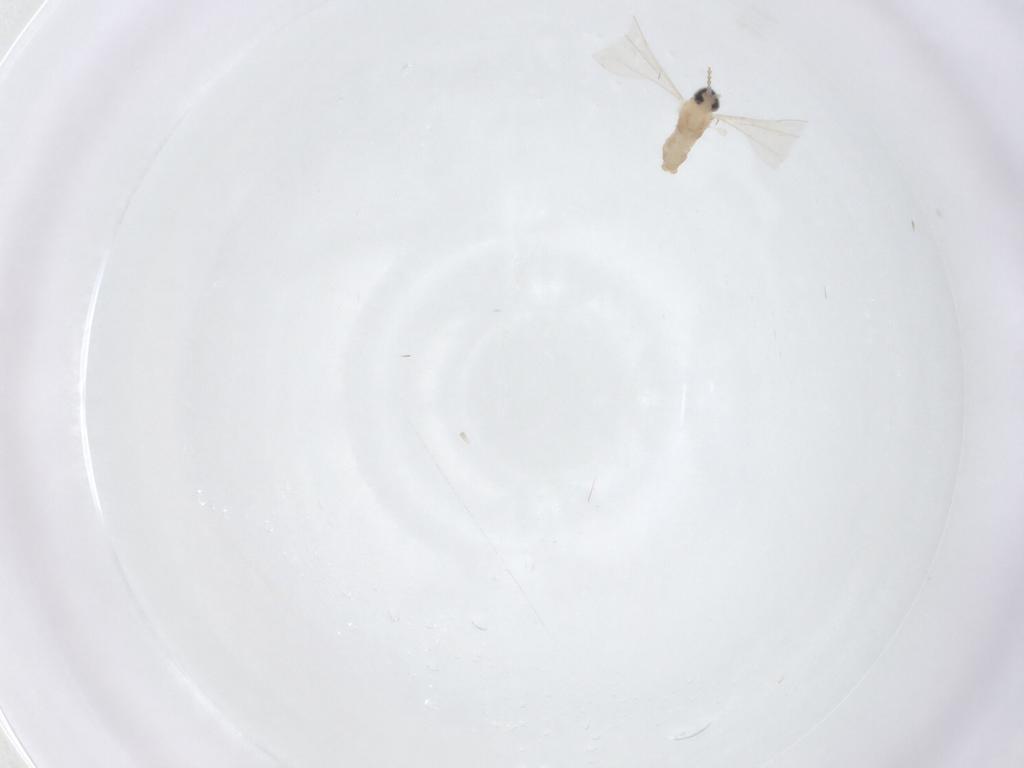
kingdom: Animalia
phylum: Arthropoda
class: Insecta
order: Diptera
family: Cecidomyiidae
